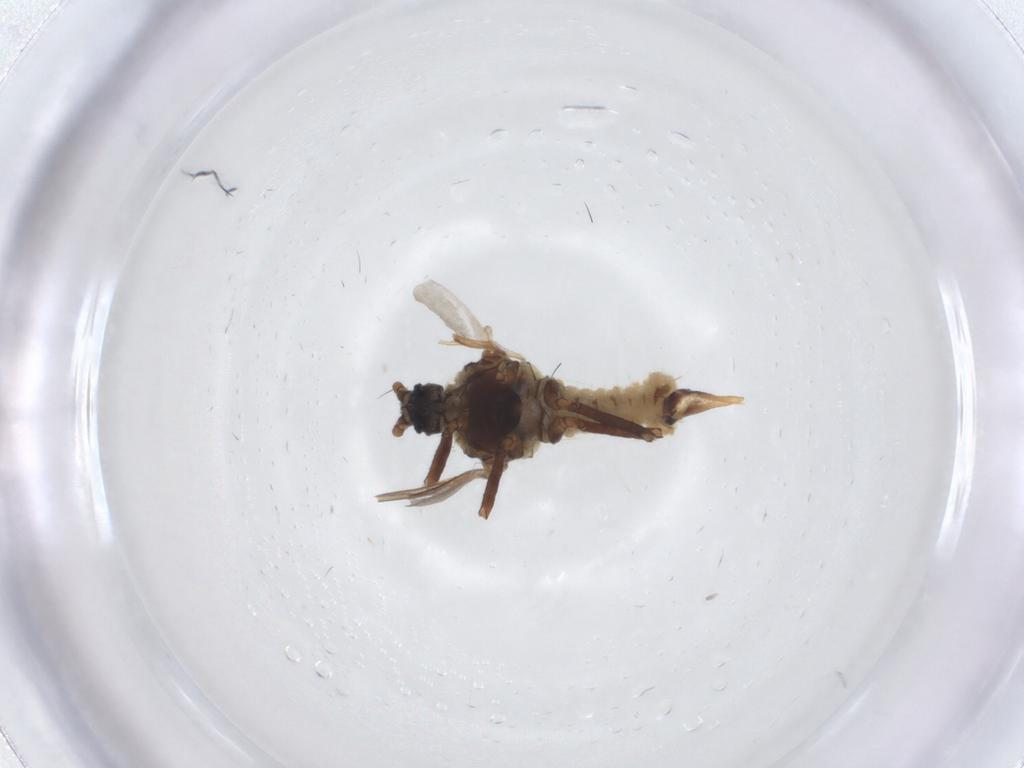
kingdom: Animalia
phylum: Arthropoda
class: Insecta
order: Hemiptera
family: Putoidae
